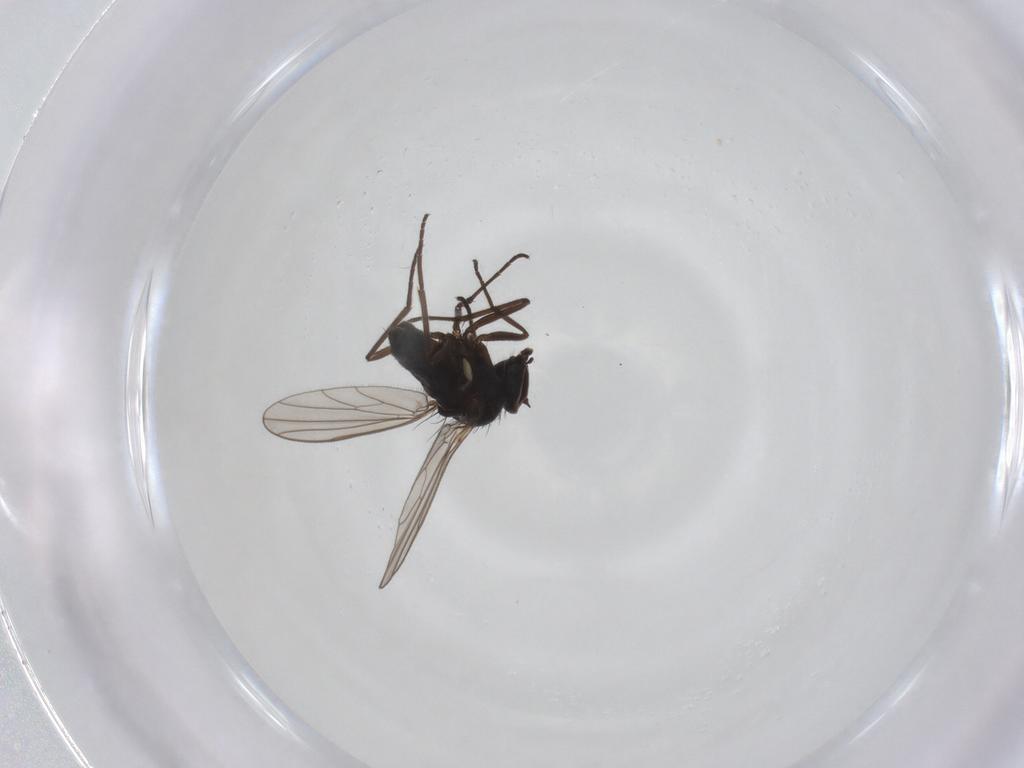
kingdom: Animalia
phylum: Arthropoda
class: Insecta
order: Diptera
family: Dolichopodidae
